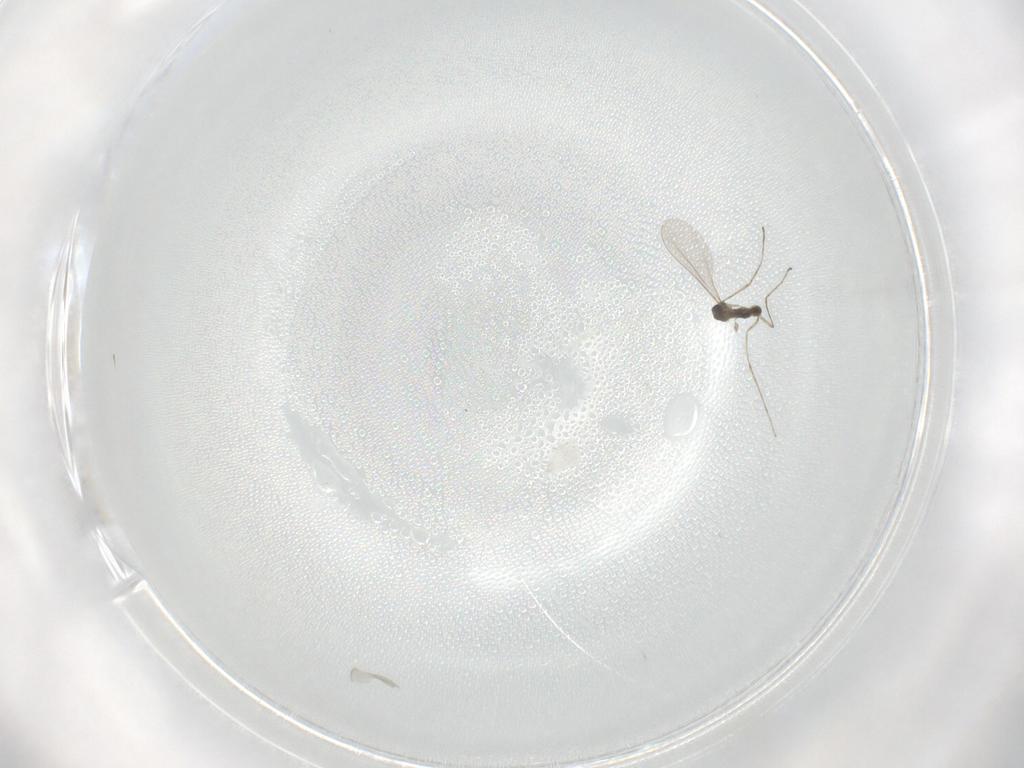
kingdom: Animalia
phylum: Arthropoda
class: Insecta
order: Diptera
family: Cecidomyiidae
